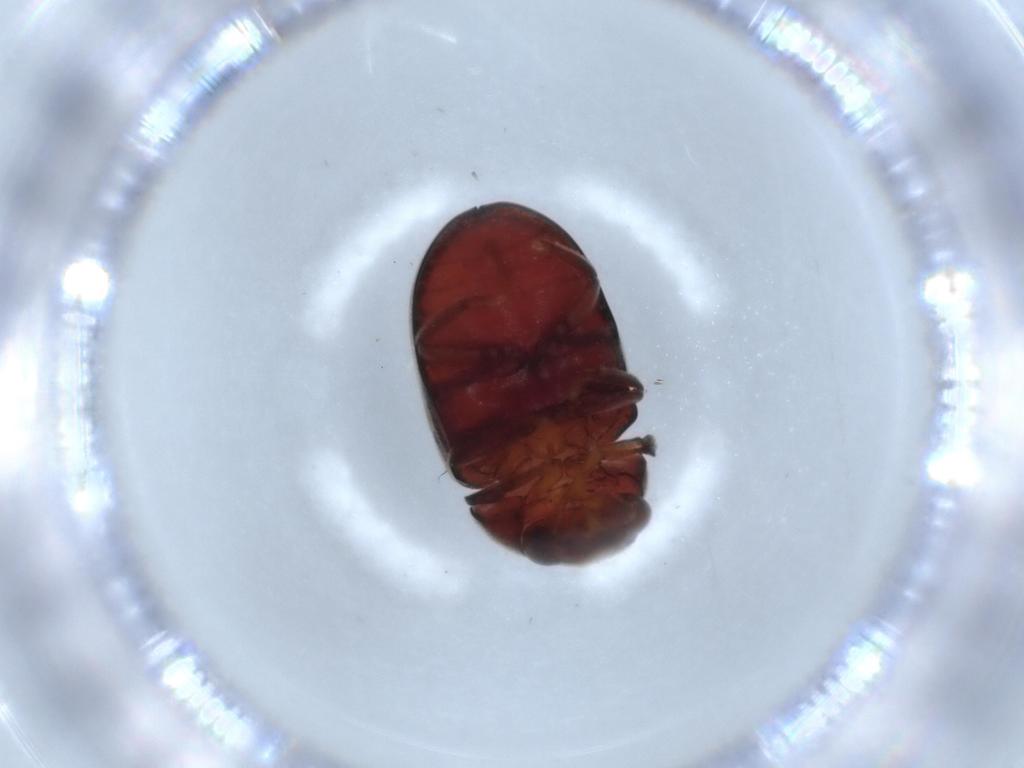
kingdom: Animalia
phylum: Arthropoda
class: Insecta
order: Coleoptera
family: Ptinidae
